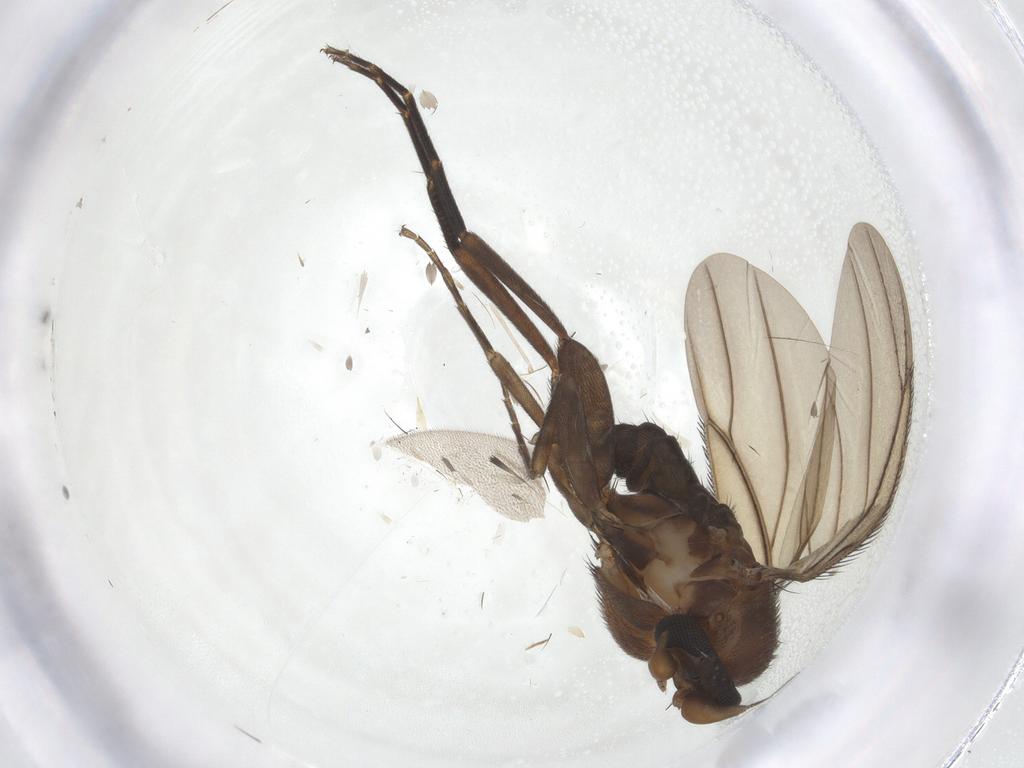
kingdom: Animalia
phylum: Arthropoda
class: Insecta
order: Diptera
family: Phoridae
